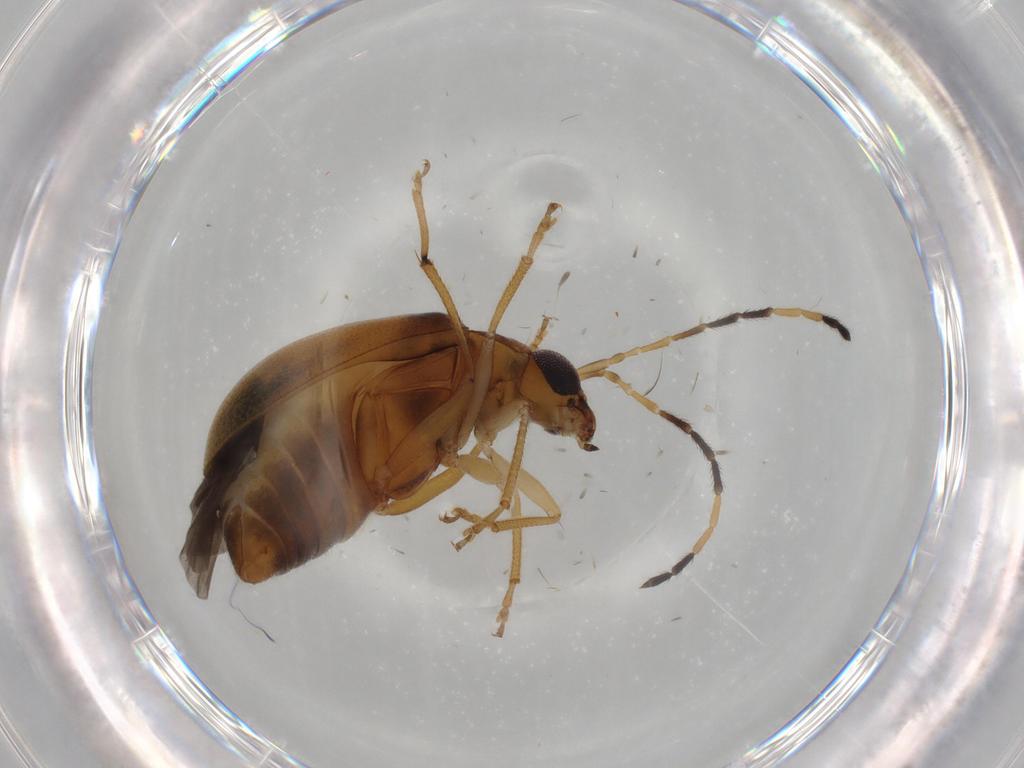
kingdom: Animalia
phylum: Arthropoda
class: Insecta
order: Coleoptera
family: Chrysomelidae
